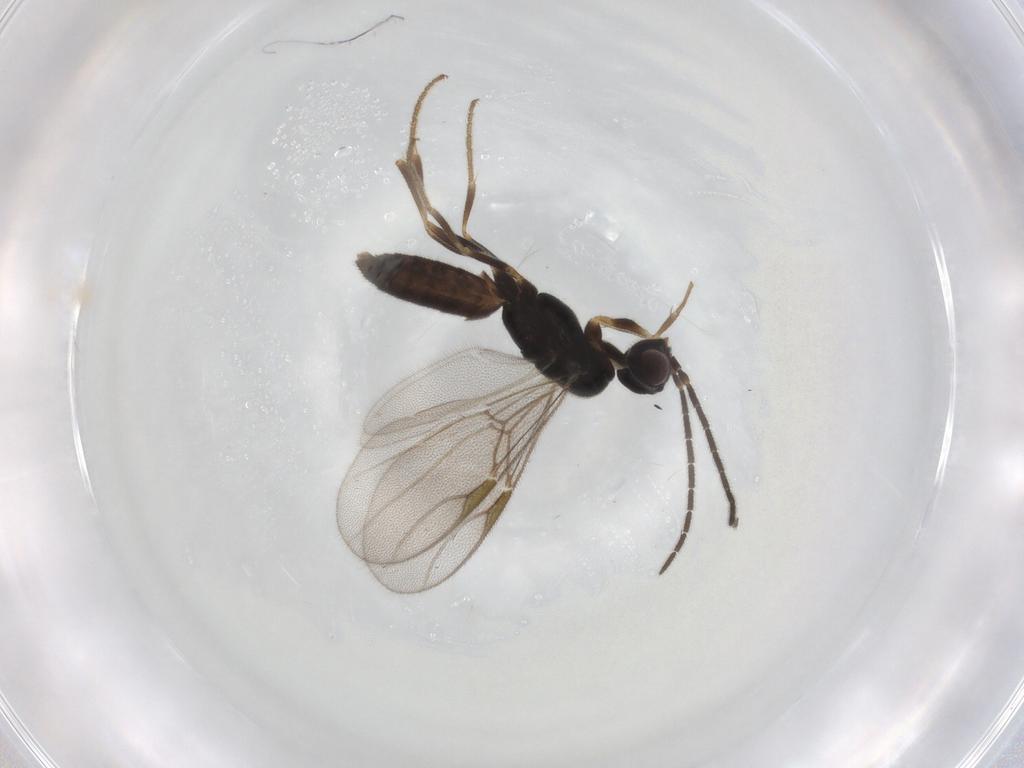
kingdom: Animalia
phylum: Arthropoda
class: Insecta
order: Hymenoptera
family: Dryinidae
